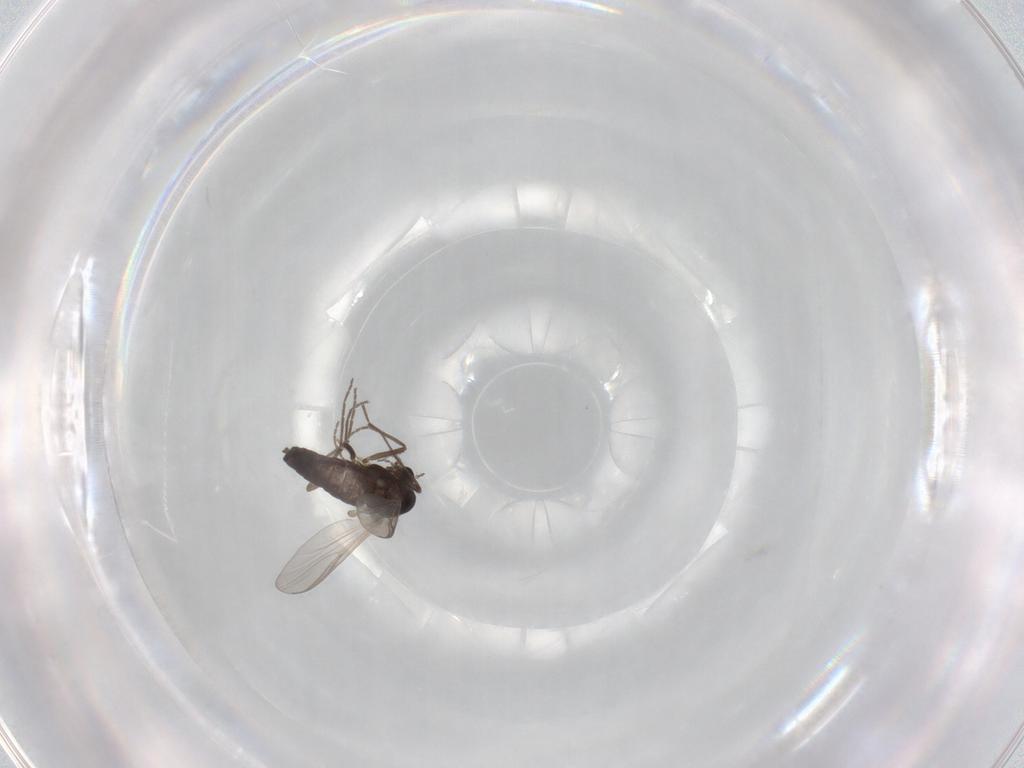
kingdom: Animalia
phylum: Arthropoda
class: Insecta
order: Diptera
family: Chironomidae
